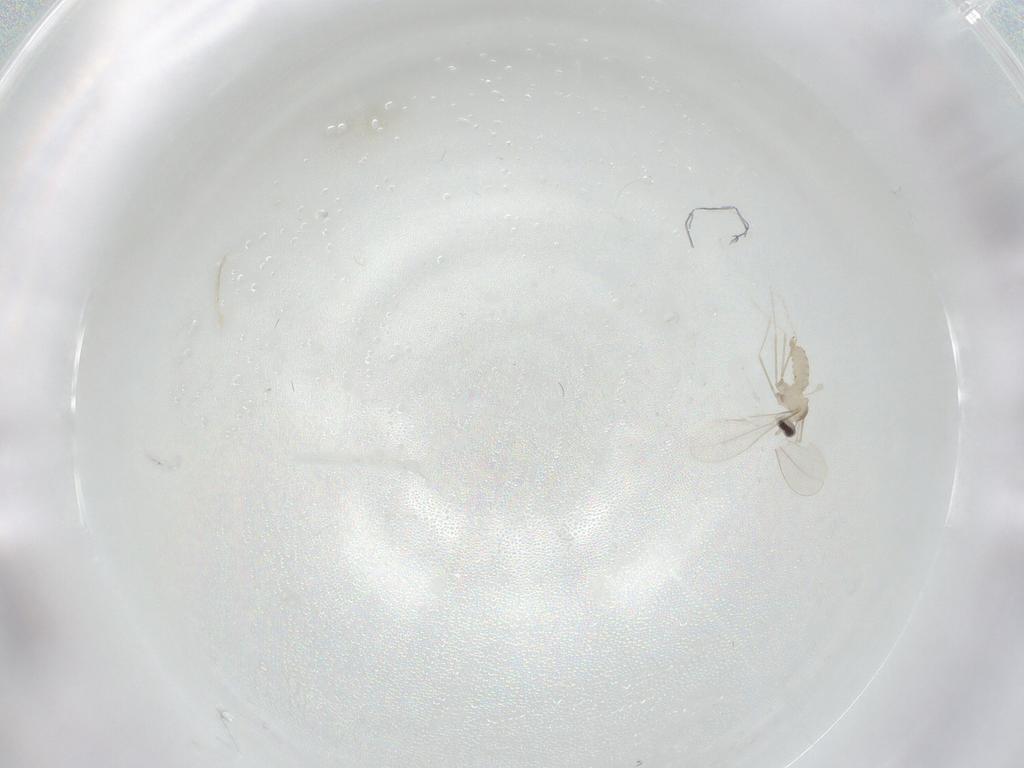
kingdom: Animalia
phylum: Arthropoda
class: Insecta
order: Diptera
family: Cecidomyiidae
